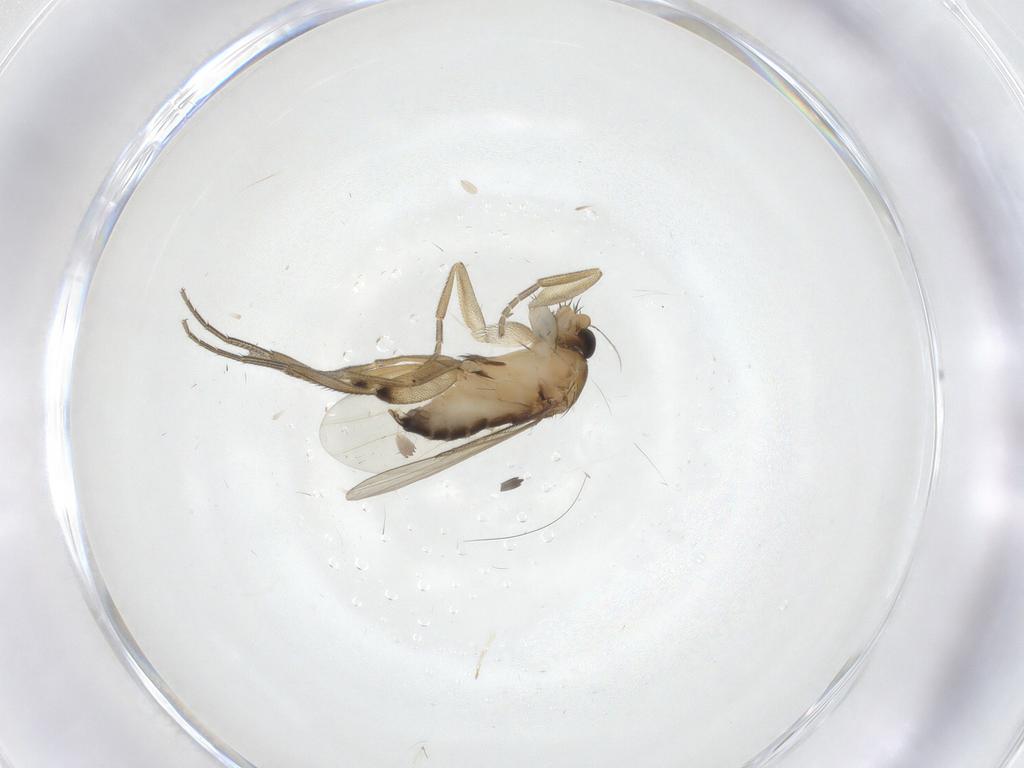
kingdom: Animalia
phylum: Arthropoda
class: Insecta
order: Diptera
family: Phoridae
